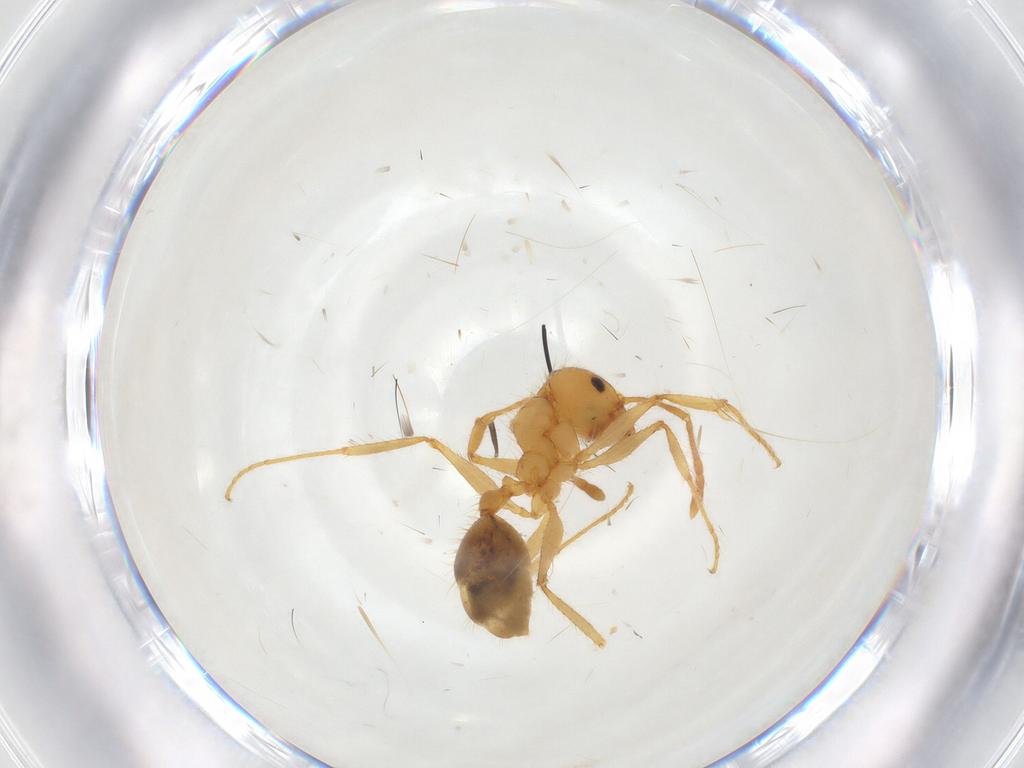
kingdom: Animalia
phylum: Arthropoda
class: Insecta
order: Hymenoptera
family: Formicidae
